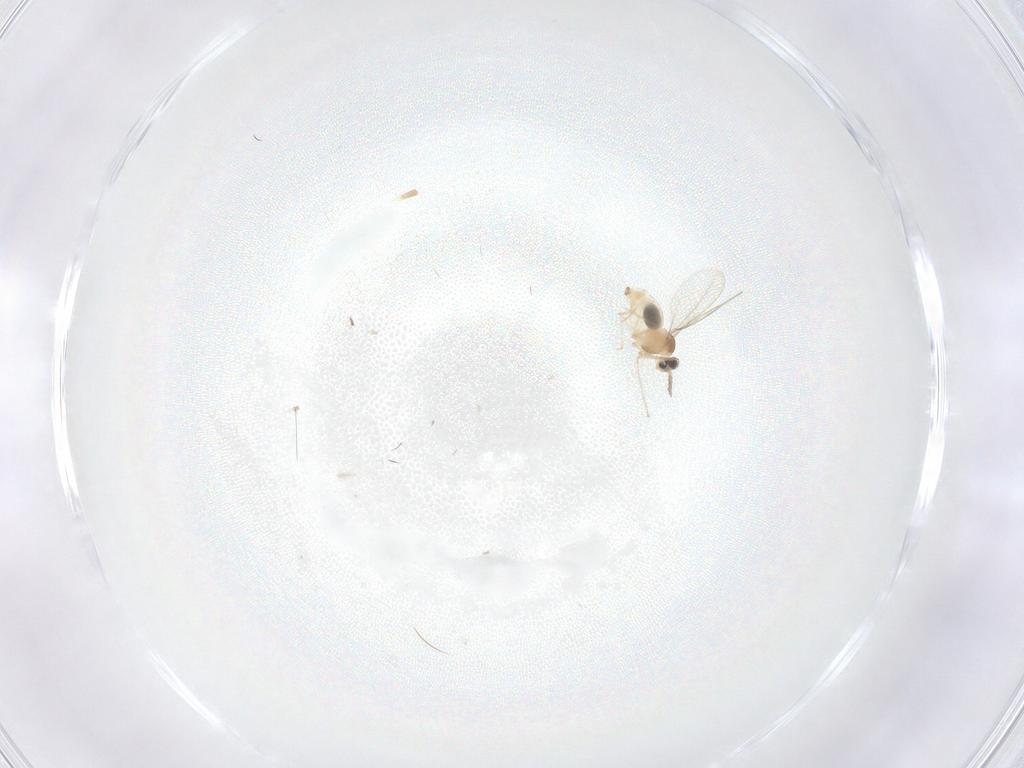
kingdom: Animalia
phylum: Arthropoda
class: Insecta
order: Diptera
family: Cecidomyiidae
